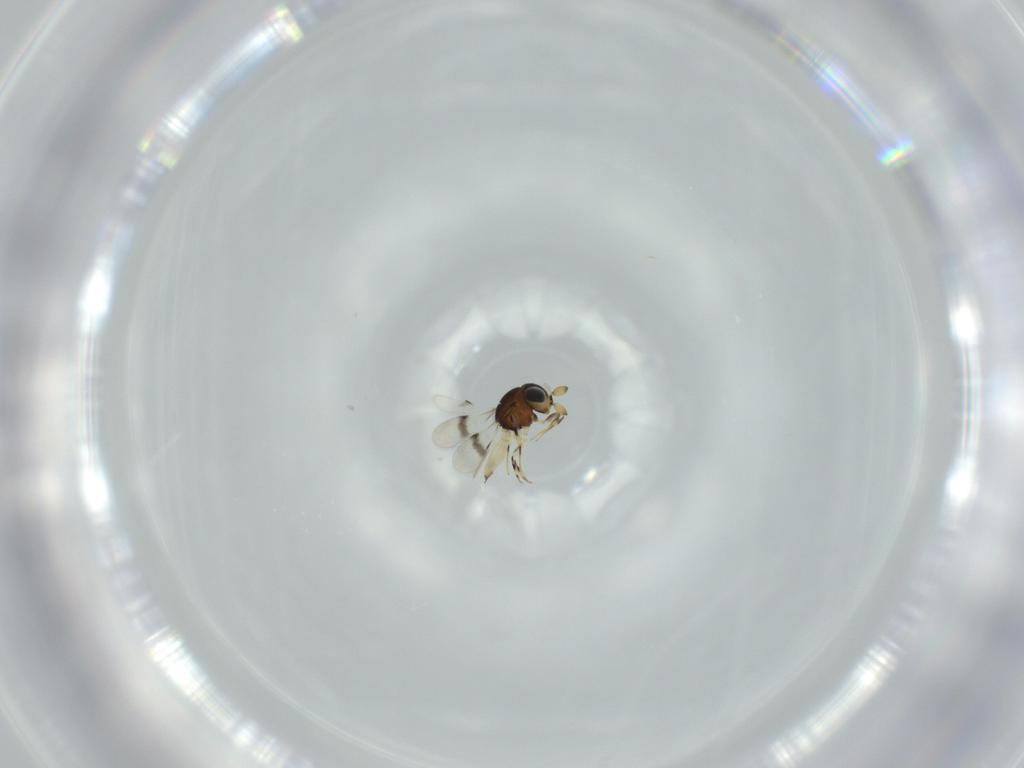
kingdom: Animalia
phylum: Arthropoda
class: Insecta
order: Hymenoptera
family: Scelionidae
